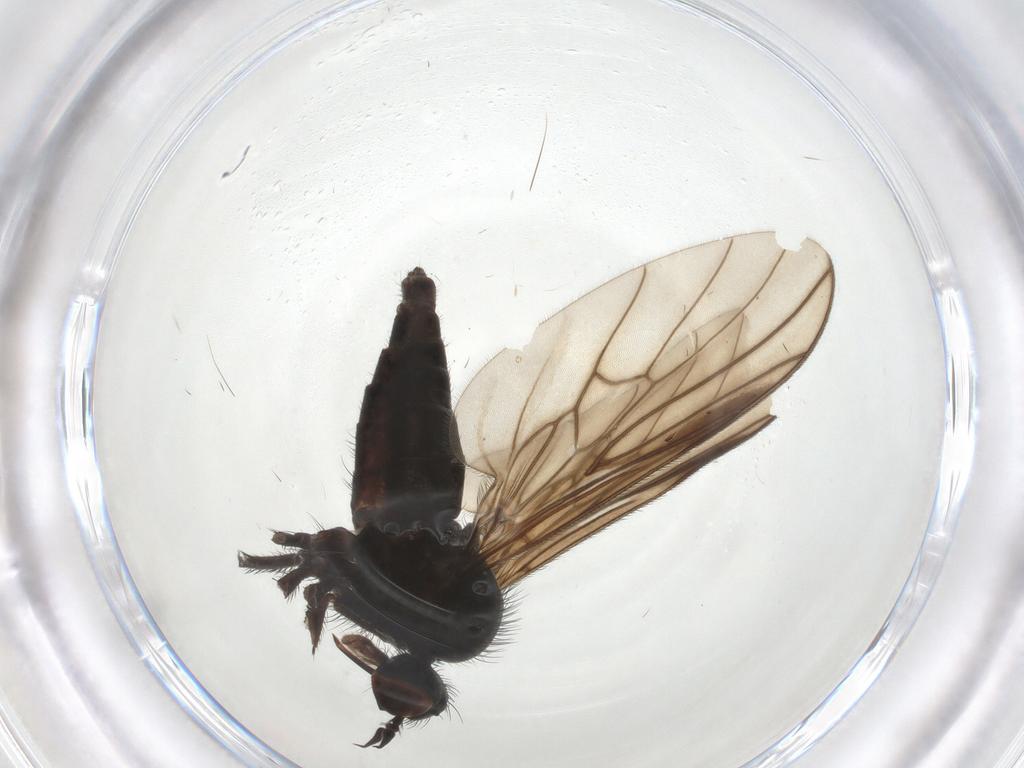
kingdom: Animalia
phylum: Arthropoda
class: Insecta
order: Diptera
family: Empididae
